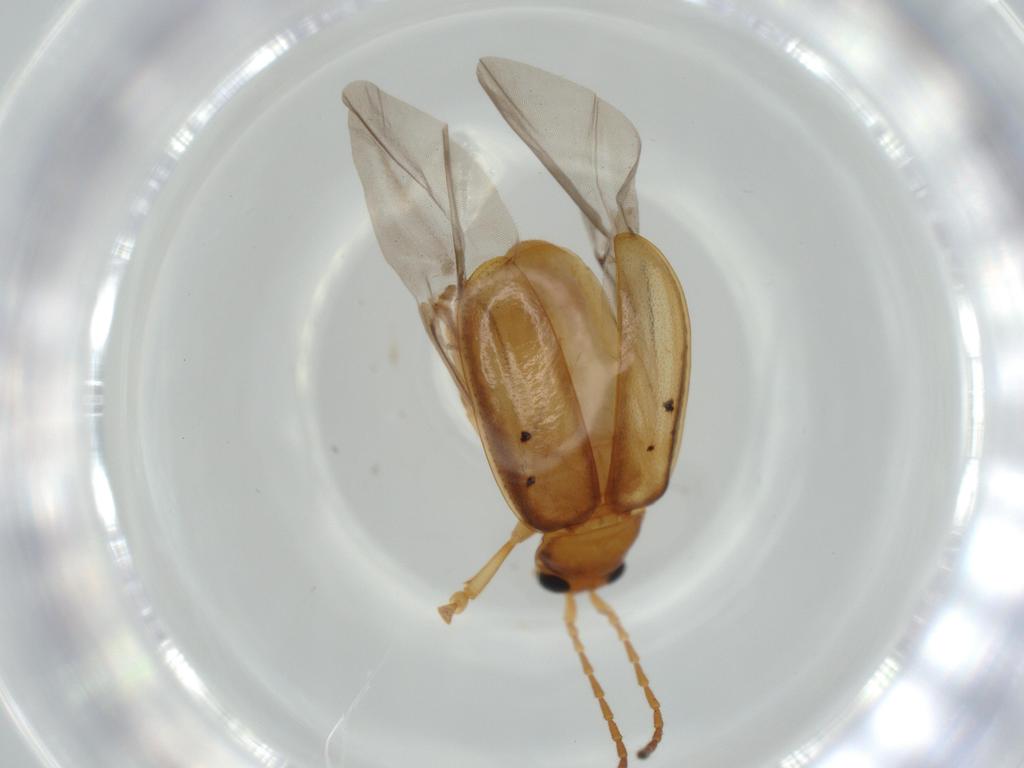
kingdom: Animalia
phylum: Arthropoda
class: Insecta
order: Coleoptera
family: Chrysomelidae
